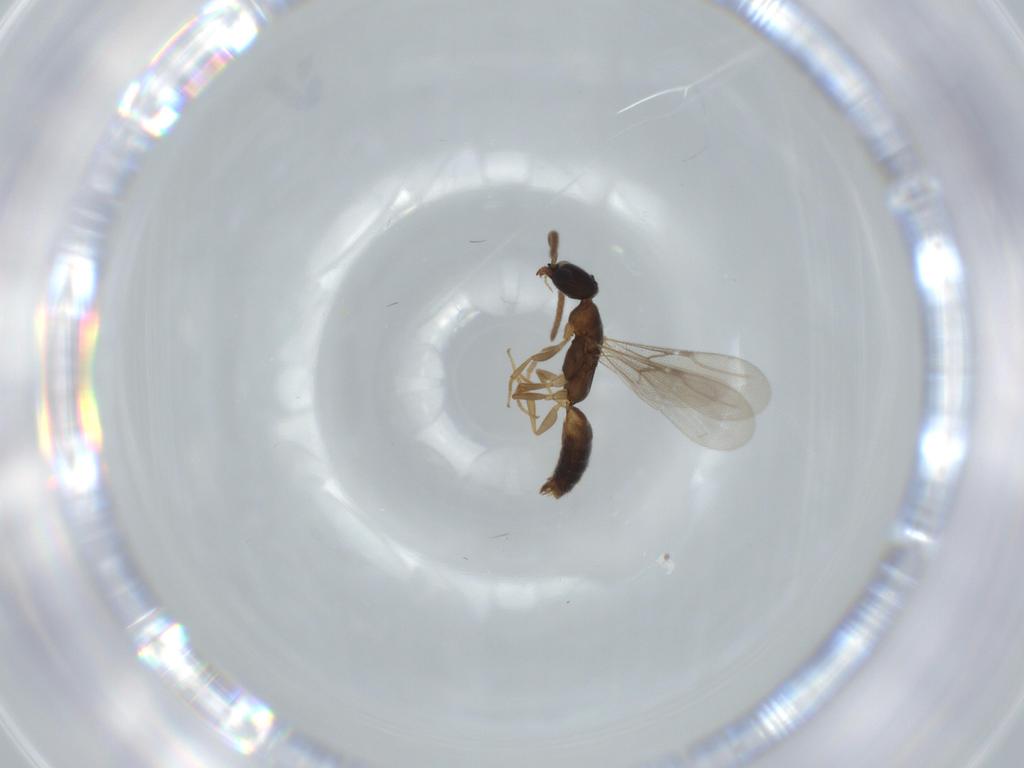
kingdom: Animalia
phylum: Arthropoda
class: Insecta
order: Hymenoptera
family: Bethylidae
